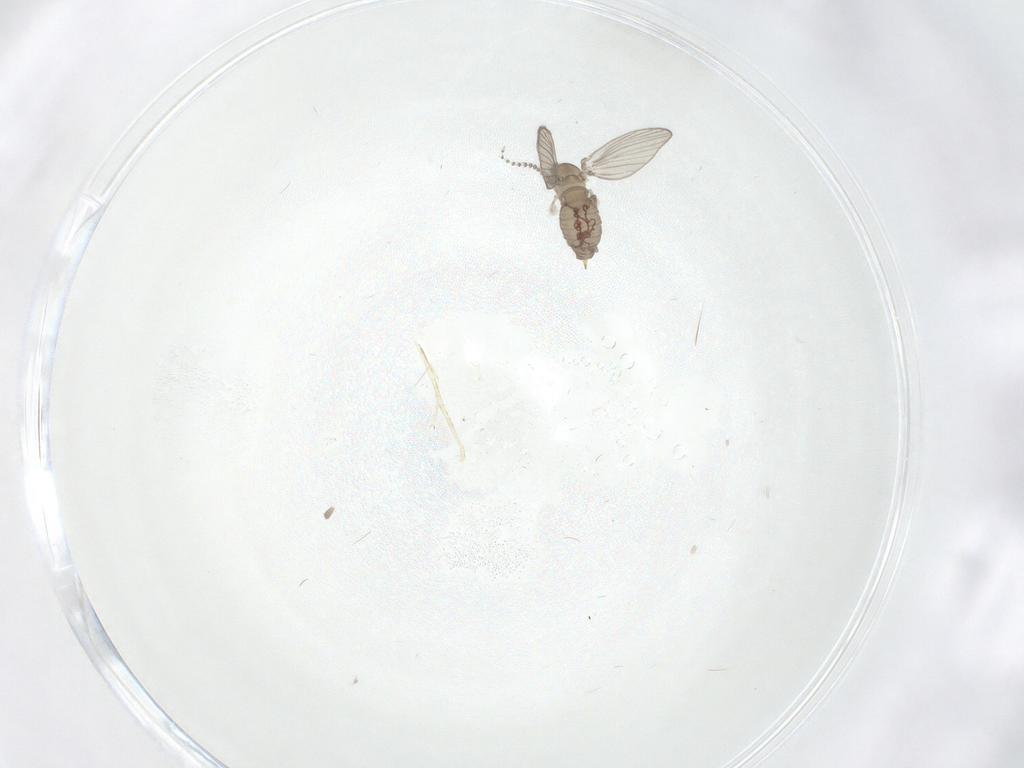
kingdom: Animalia
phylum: Arthropoda
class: Insecta
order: Diptera
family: Psychodidae
